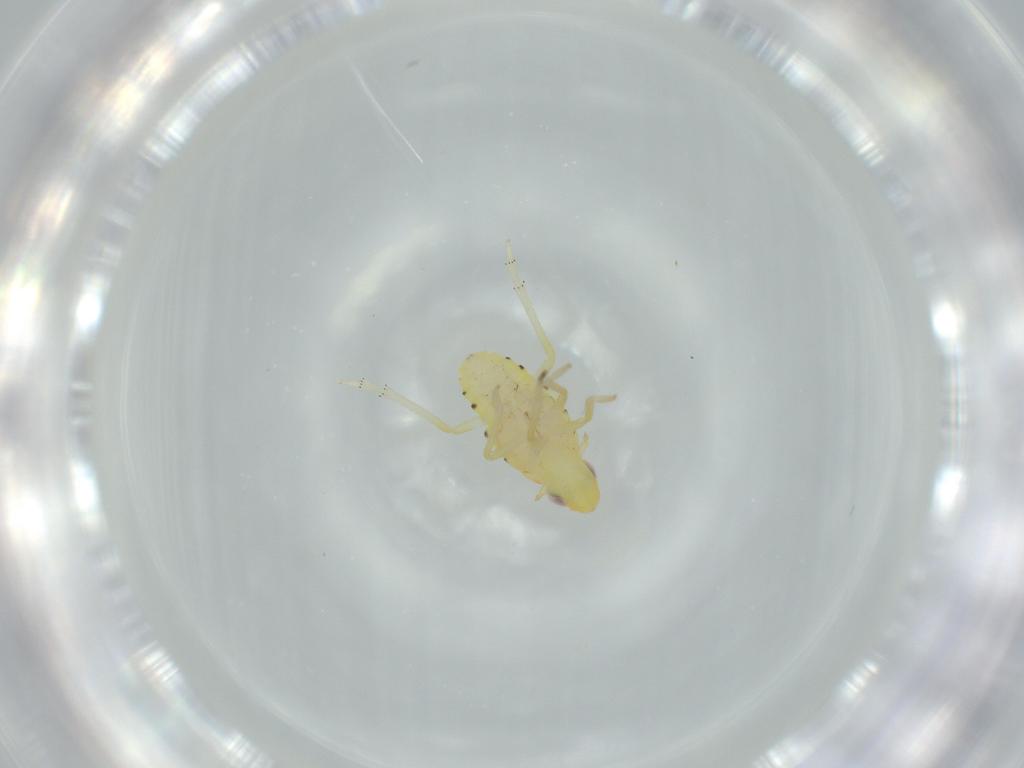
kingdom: Animalia
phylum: Arthropoda
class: Insecta
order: Hemiptera
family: Tropiduchidae
